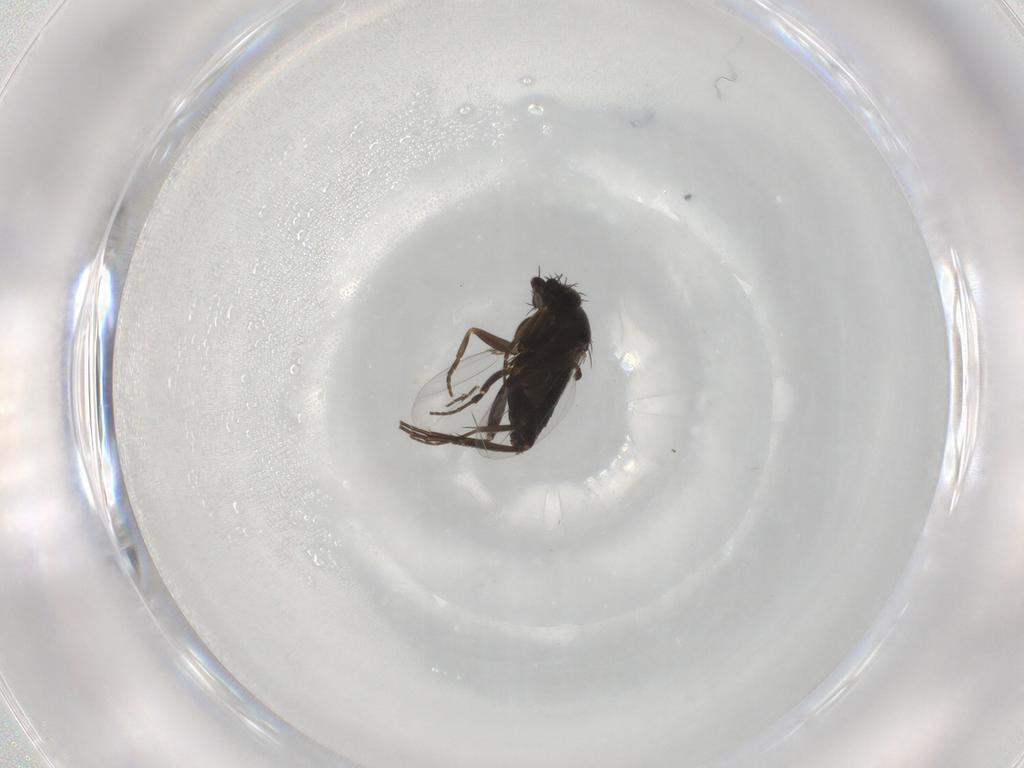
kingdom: Animalia
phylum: Arthropoda
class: Insecta
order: Diptera
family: Phoridae
